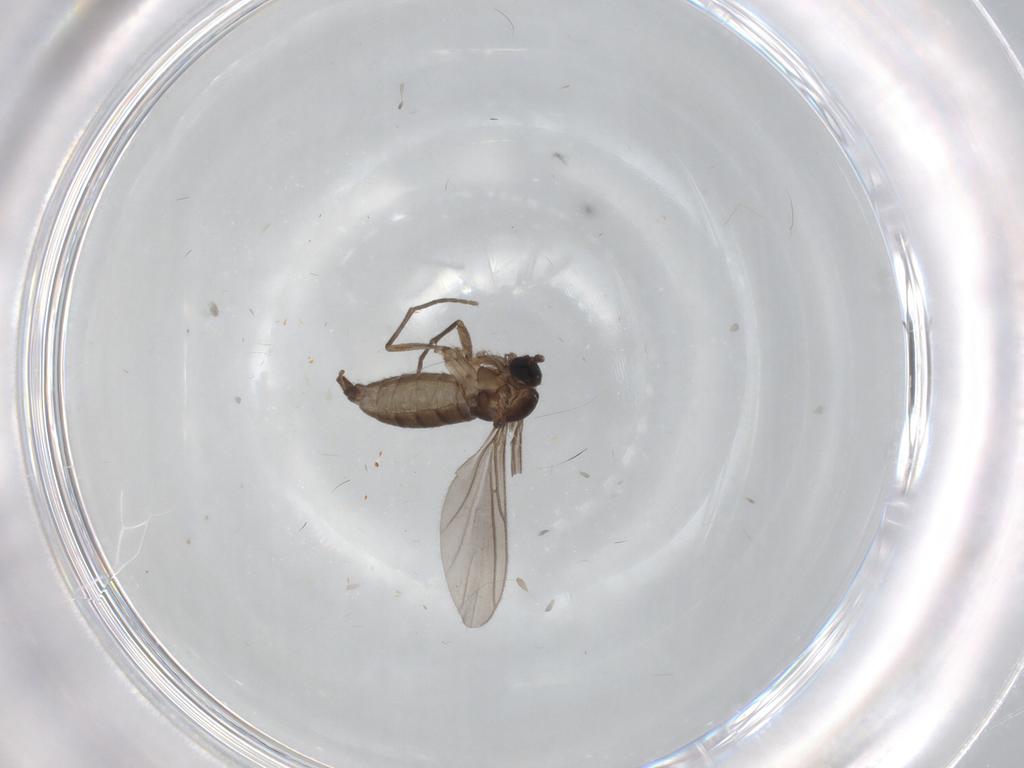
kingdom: Animalia
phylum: Arthropoda
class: Insecta
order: Diptera
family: Sciaridae
